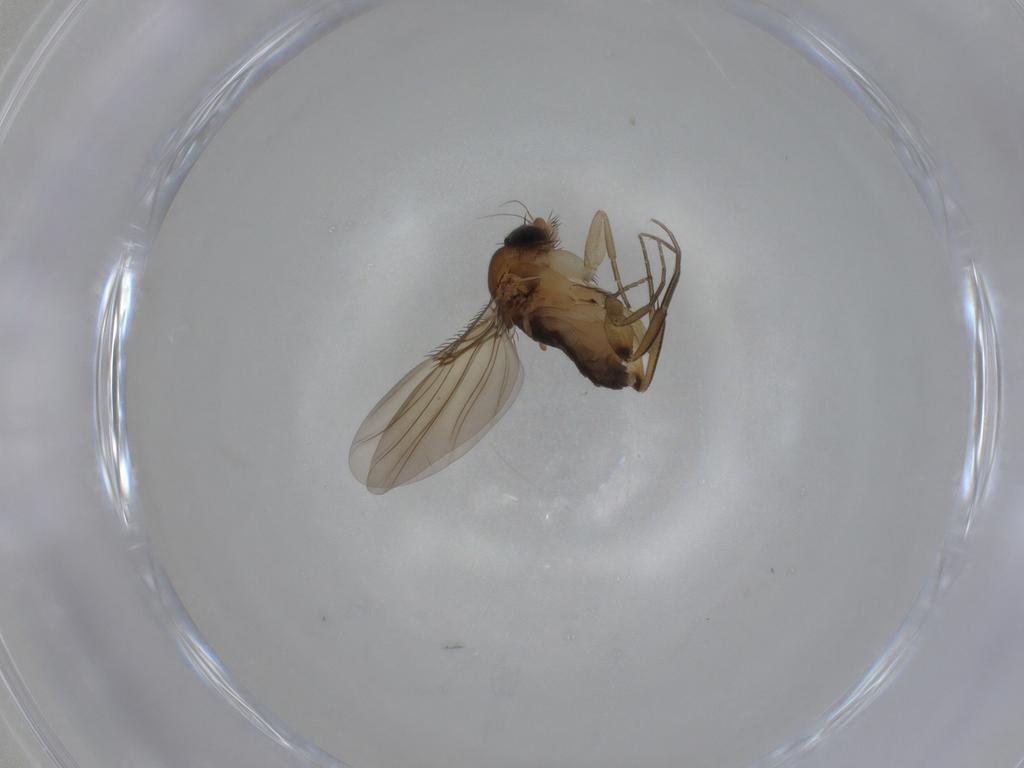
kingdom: Animalia
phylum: Arthropoda
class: Insecta
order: Diptera
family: Phoridae
